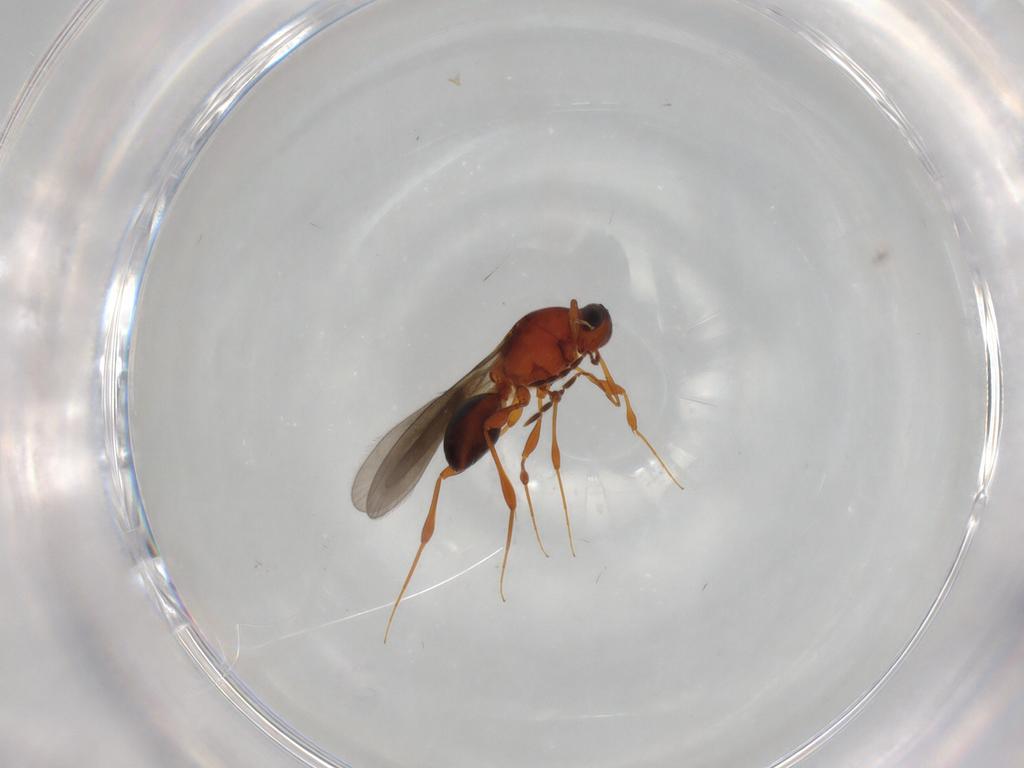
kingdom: Animalia
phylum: Arthropoda
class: Insecta
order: Hymenoptera
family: Platygastridae
